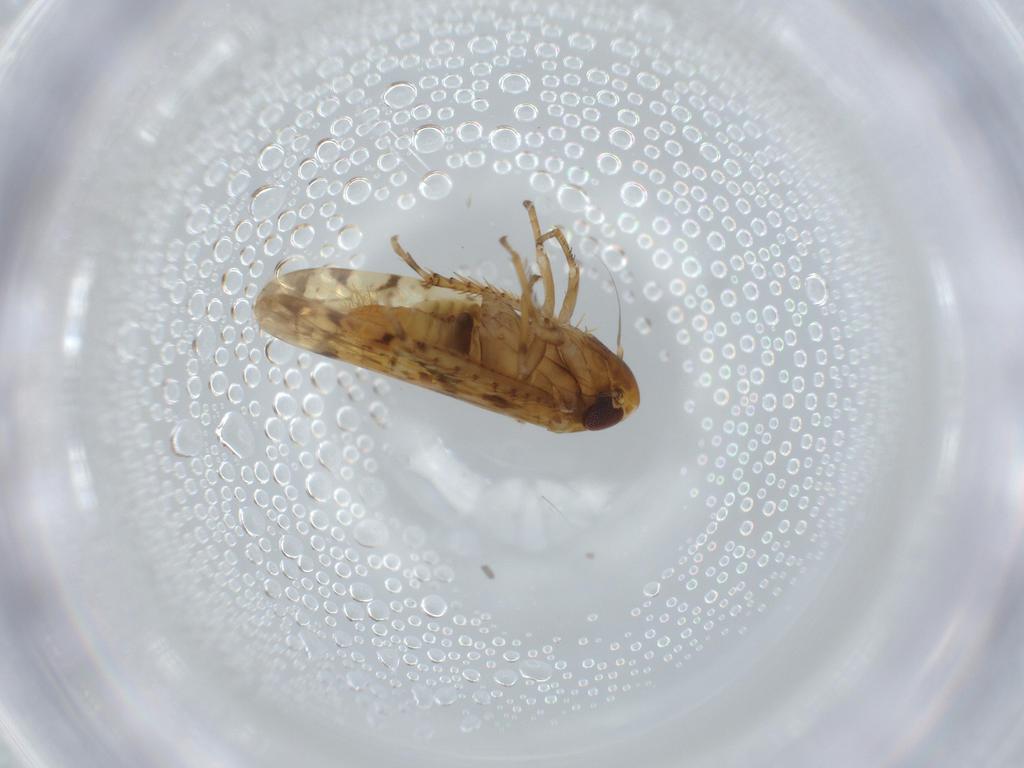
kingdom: Animalia
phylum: Arthropoda
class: Insecta
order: Hemiptera
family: Cicadellidae
